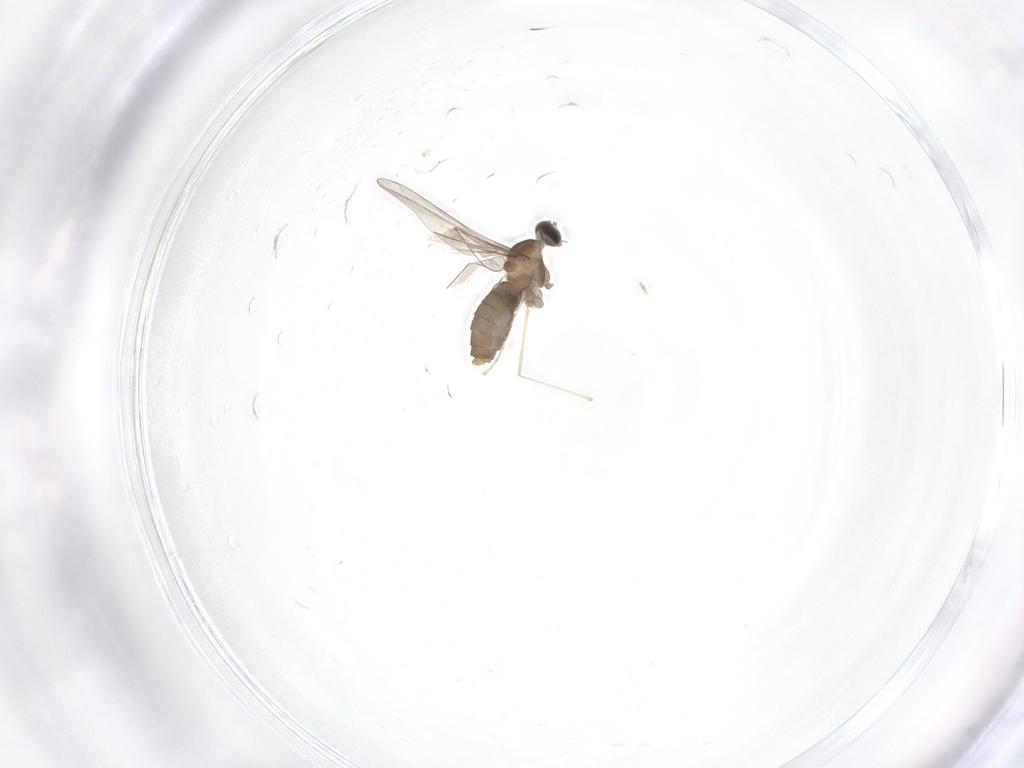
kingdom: Animalia
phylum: Arthropoda
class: Insecta
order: Diptera
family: Cecidomyiidae
